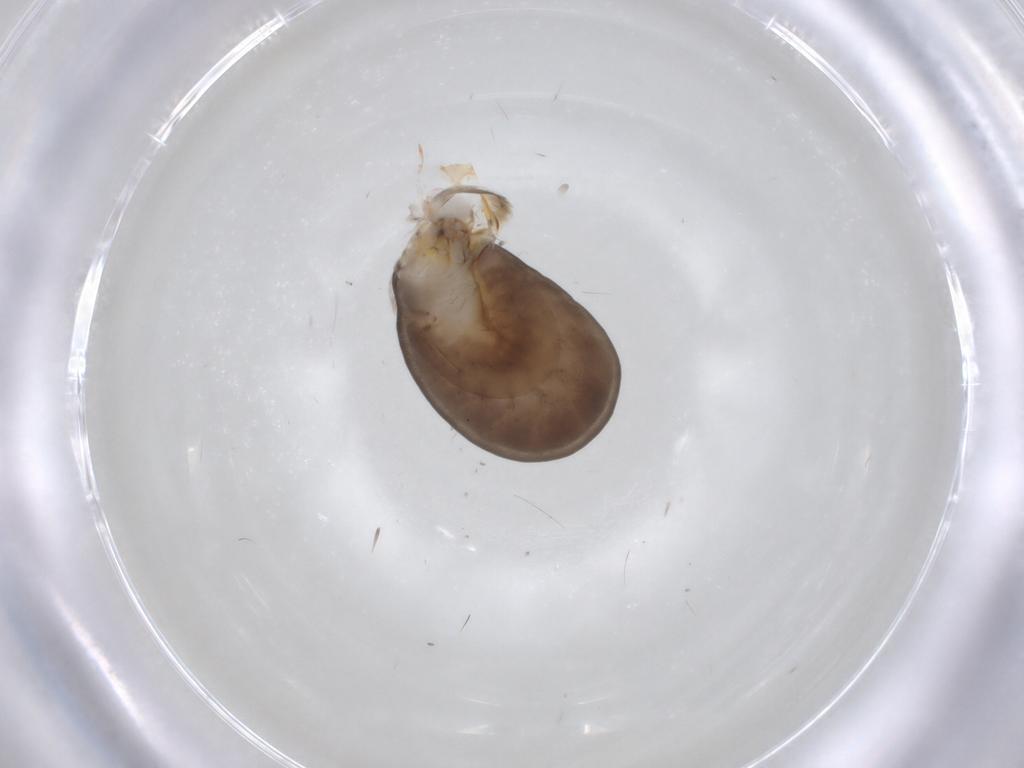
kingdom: Animalia
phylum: Arthropoda
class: Insecta
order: Hymenoptera
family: Dryinidae
